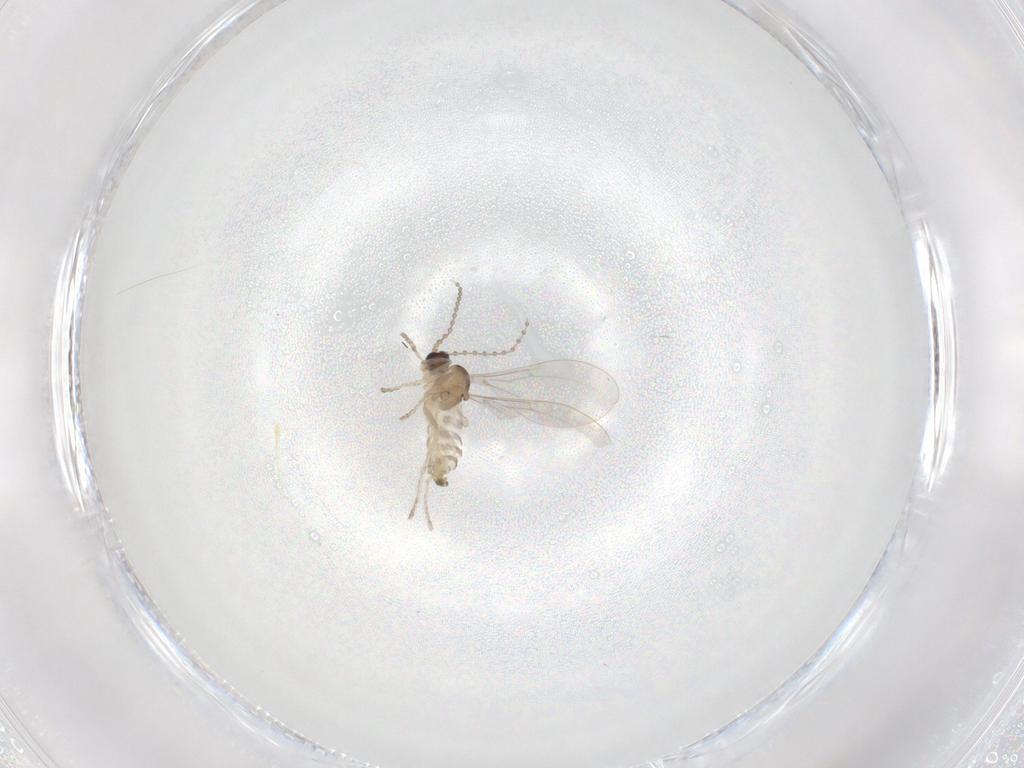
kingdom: Animalia
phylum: Arthropoda
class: Insecta
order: Diptera
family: Cecidomyiidae
